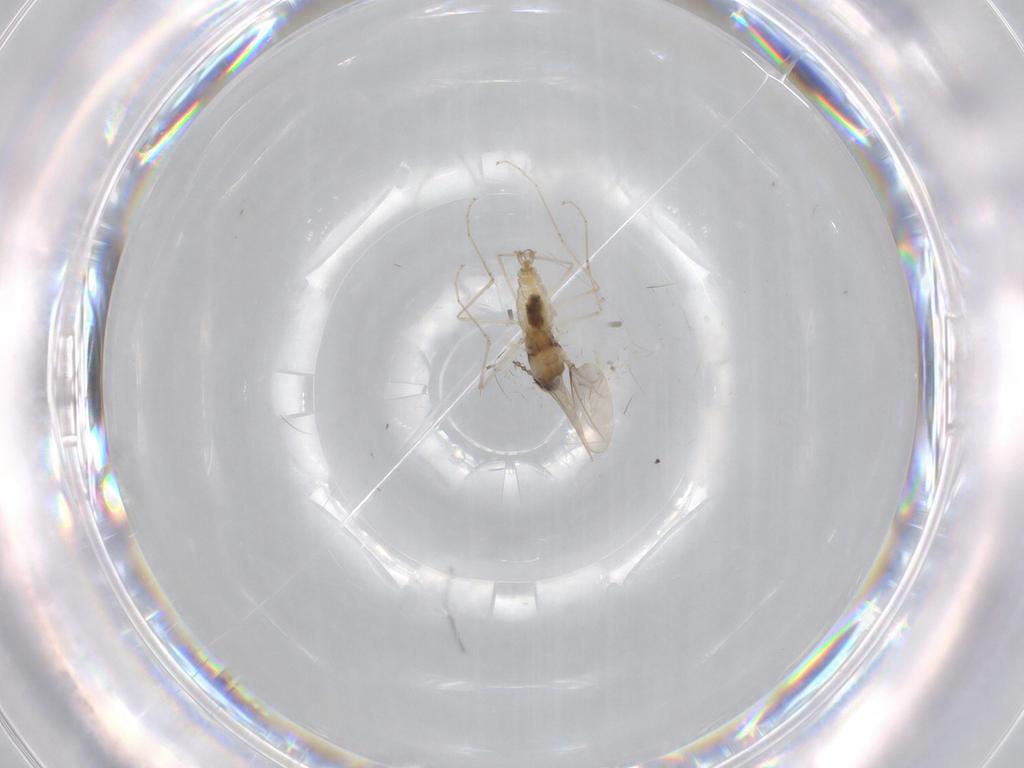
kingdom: Animalia
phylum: Arthropoda
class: Insecta
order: Diptera
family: Cecidomyiidae
